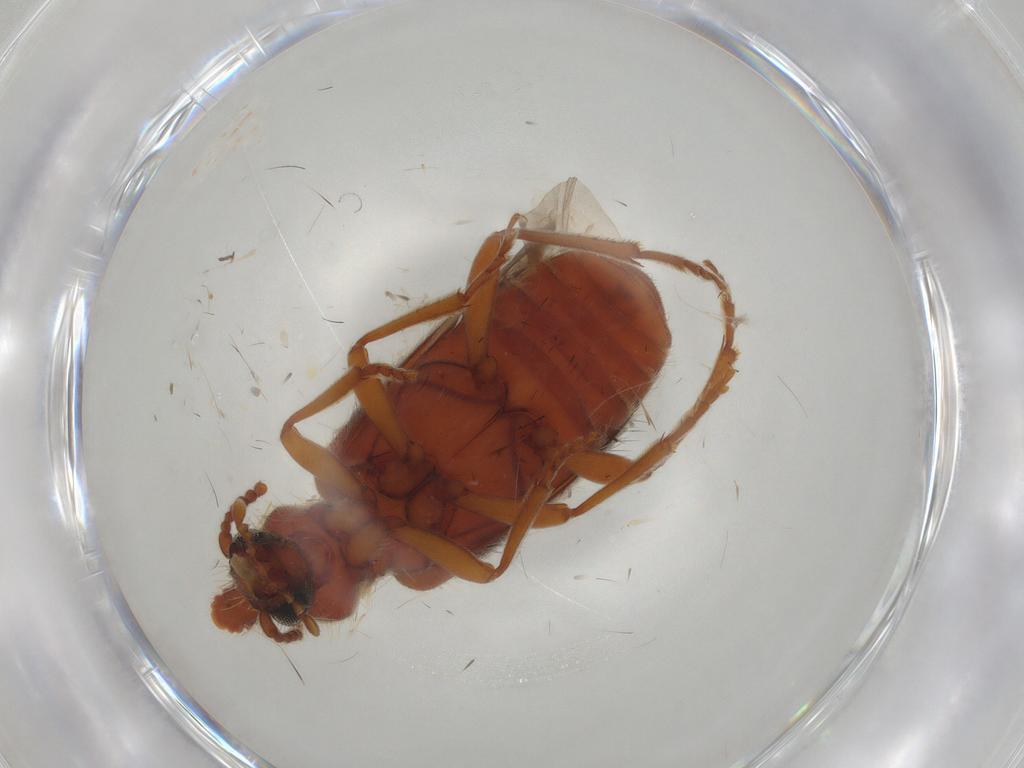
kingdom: Animalia
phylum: Arthropoda
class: Insecta
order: Coleoptera
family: Anthicidae
